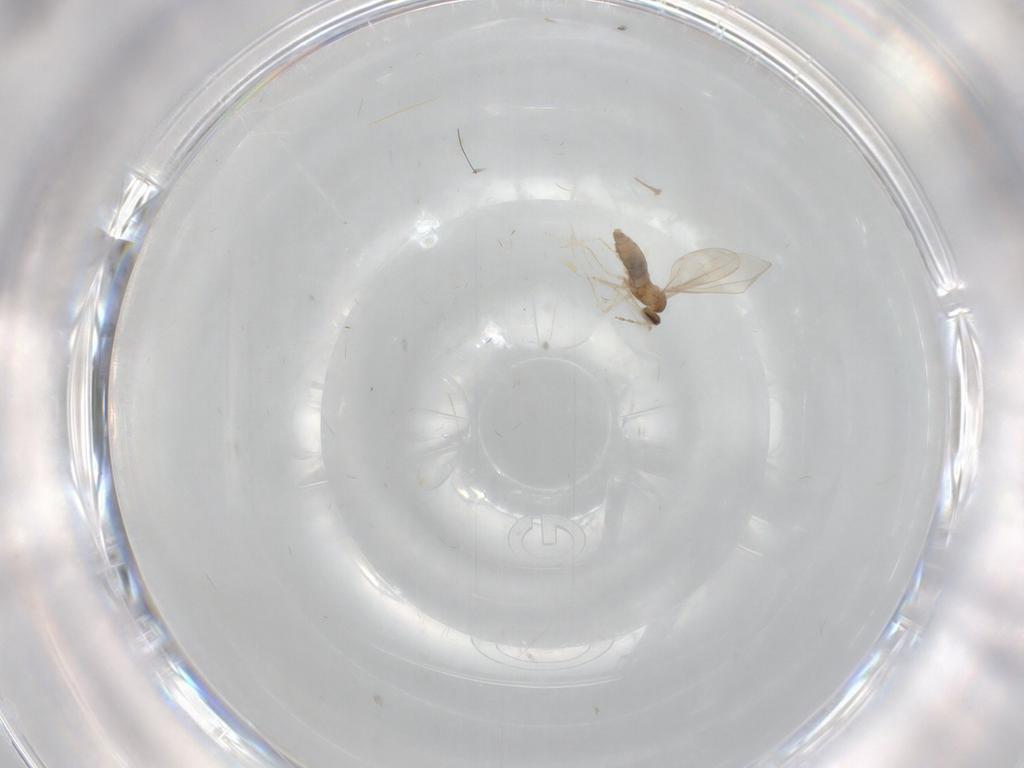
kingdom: Animalia
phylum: Arthropoda
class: Insecta
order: Diptera
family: Cecidomyiidae
